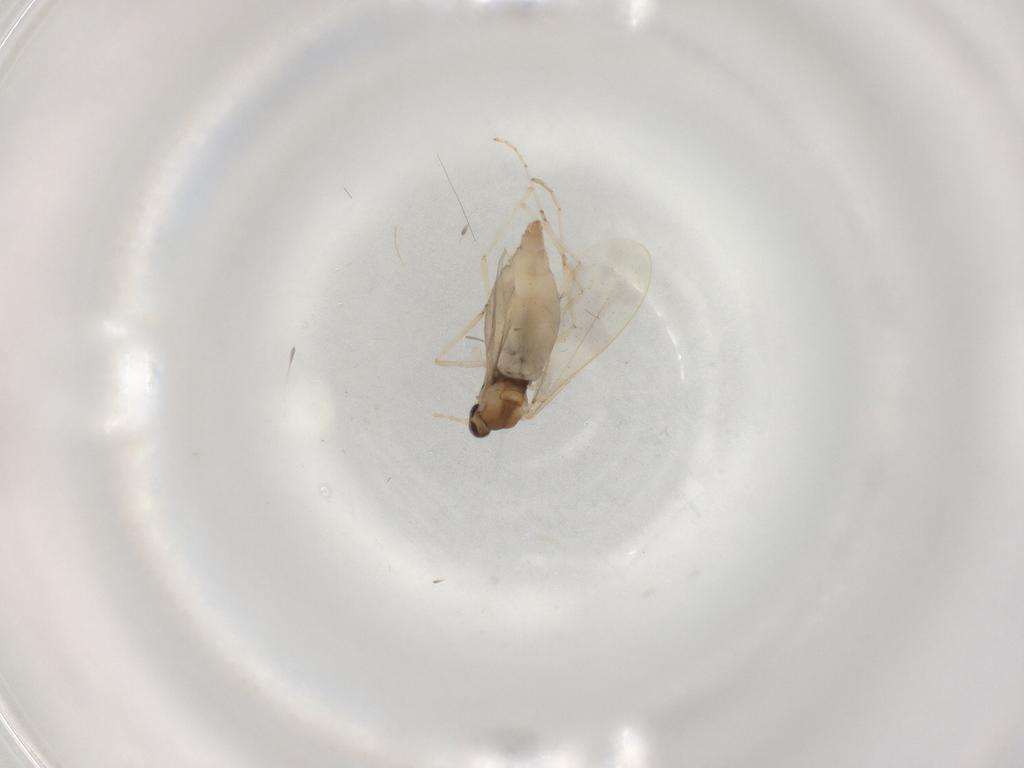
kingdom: Animalia
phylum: Arthropoda
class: Insecta
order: Diptera
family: Cecidomyiidae
